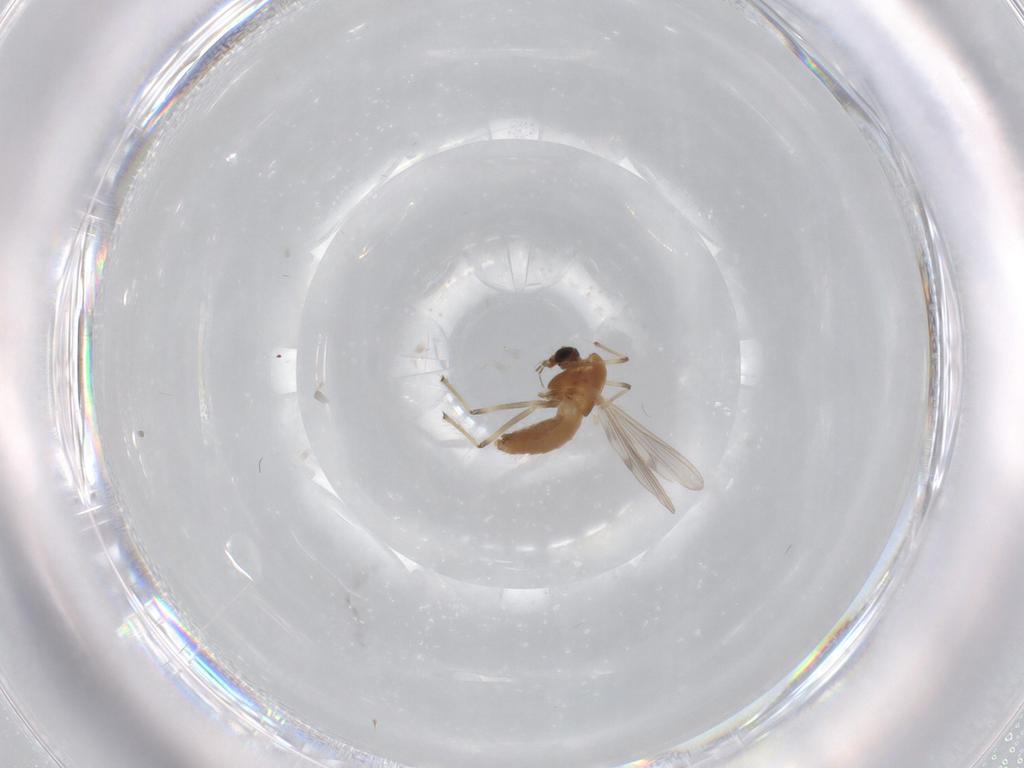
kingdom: Animalia
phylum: Arthropoda
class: Insecta
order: Diptera
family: Chironomidae
